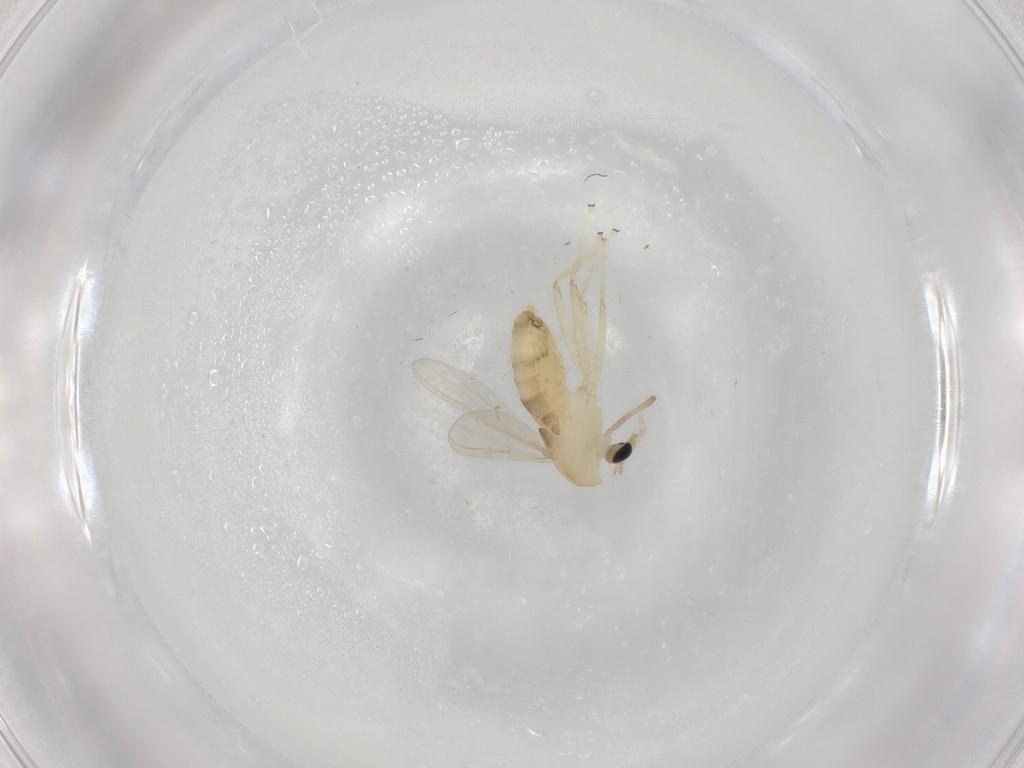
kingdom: Animalia
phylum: Arthropoda
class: Insecta
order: Diptera
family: Chironomidae
